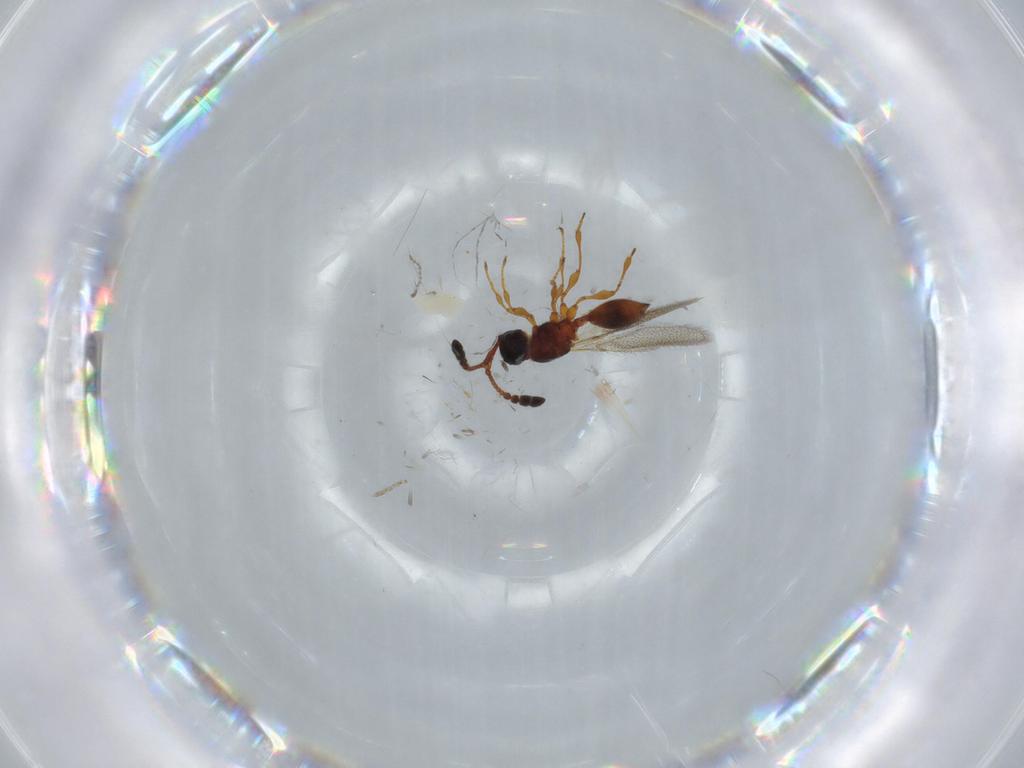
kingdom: Animalia
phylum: Arthropoda
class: Insecta
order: Hymenoptera
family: Diapriidae
